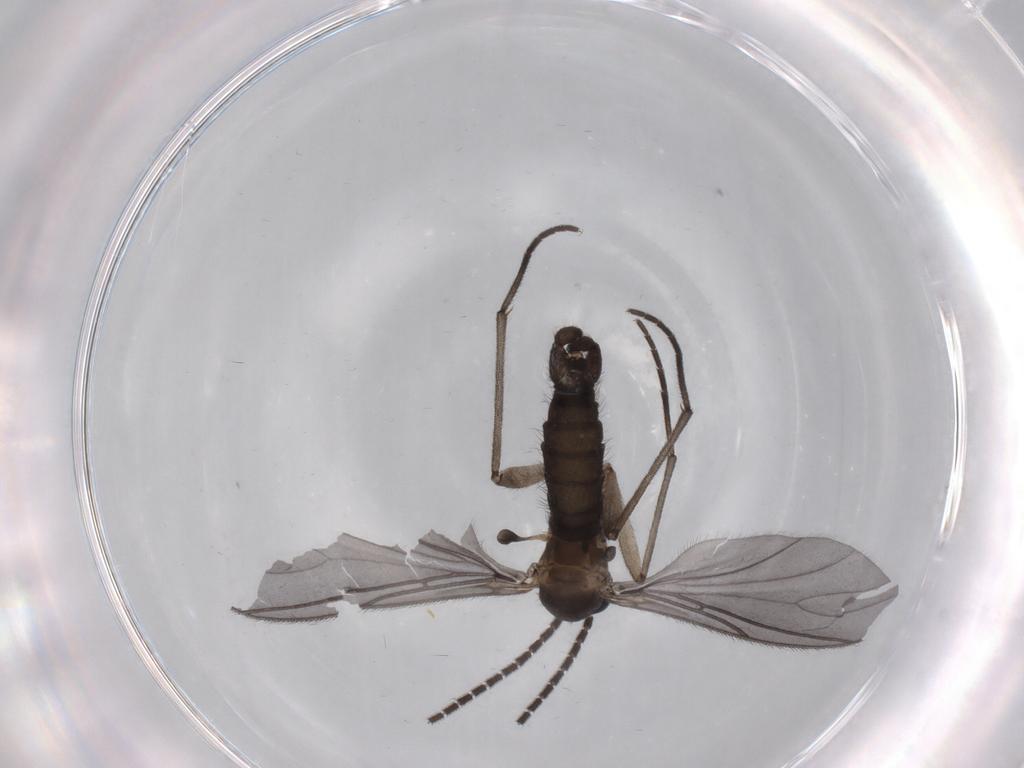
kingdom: Animalia
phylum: Arthropoda
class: Insecta
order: Diptera
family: Sciaridae
